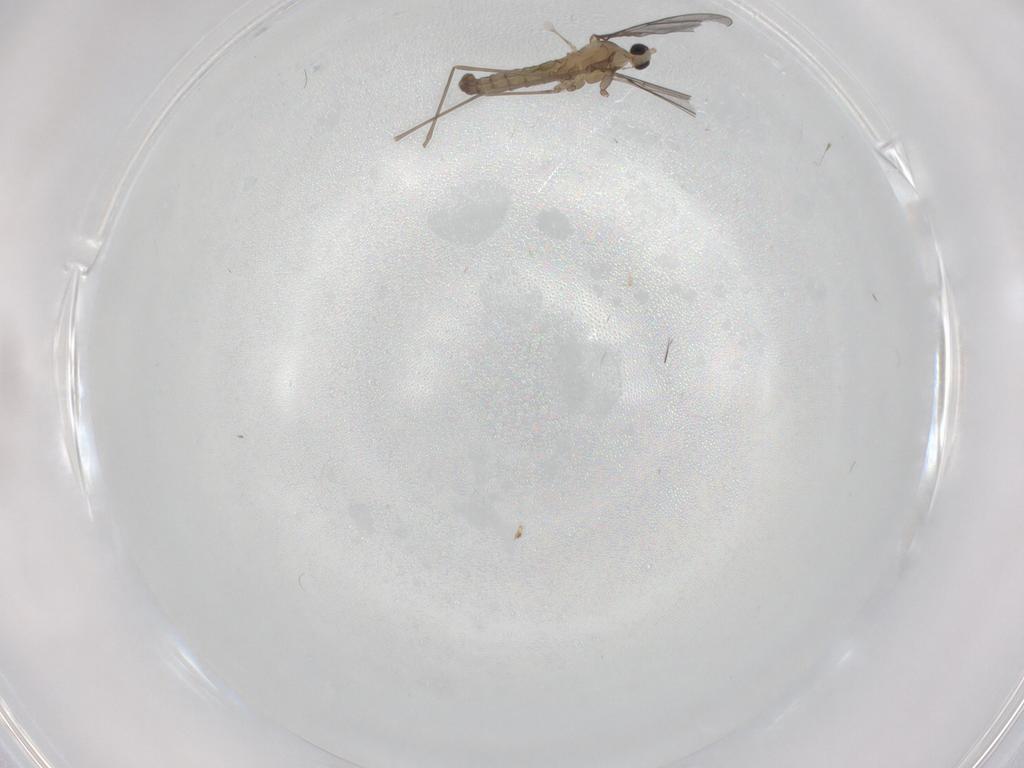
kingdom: Animalia
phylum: Arthropoda
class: Insecta
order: Diptera
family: Cecidomyiidae
